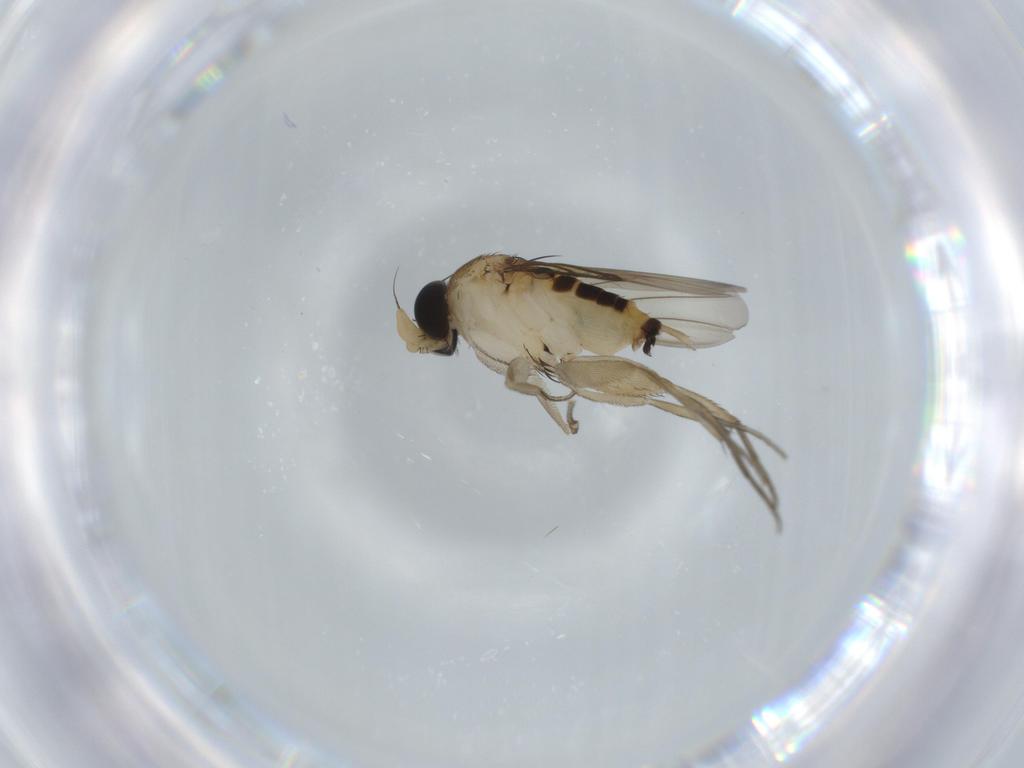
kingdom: Animalia
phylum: Arthropoda
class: Insecta
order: Diptera
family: Phoridae
